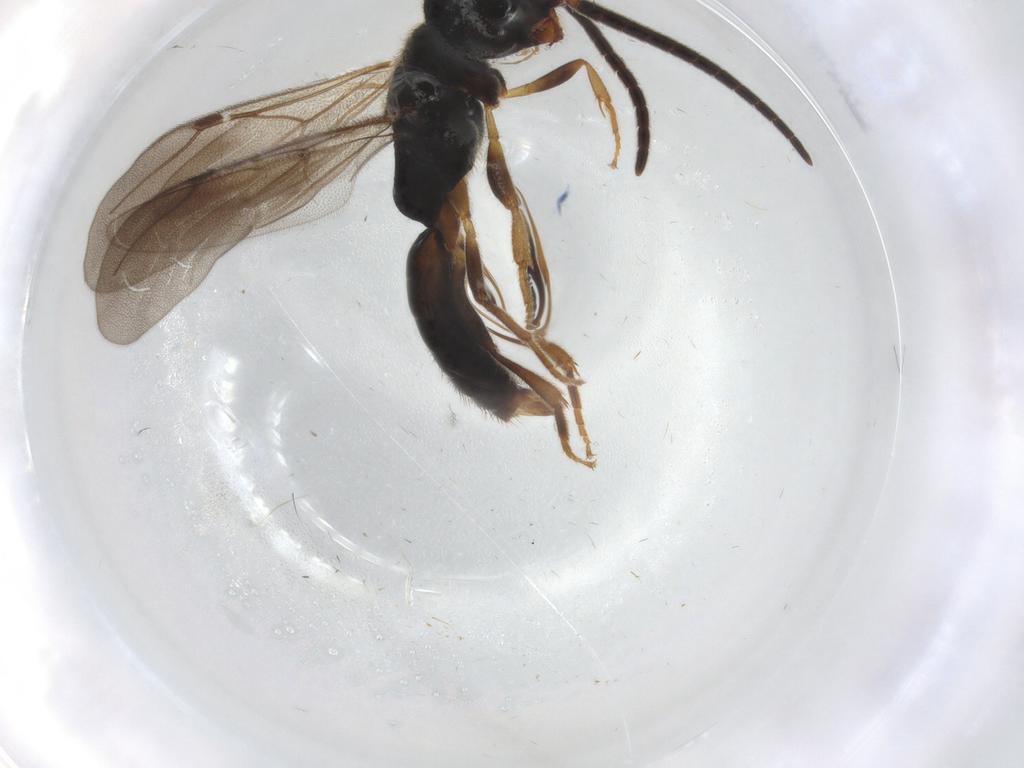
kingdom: Animalia
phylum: Arthropoda
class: Insecta
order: Hymenoptera
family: Bethylidae
